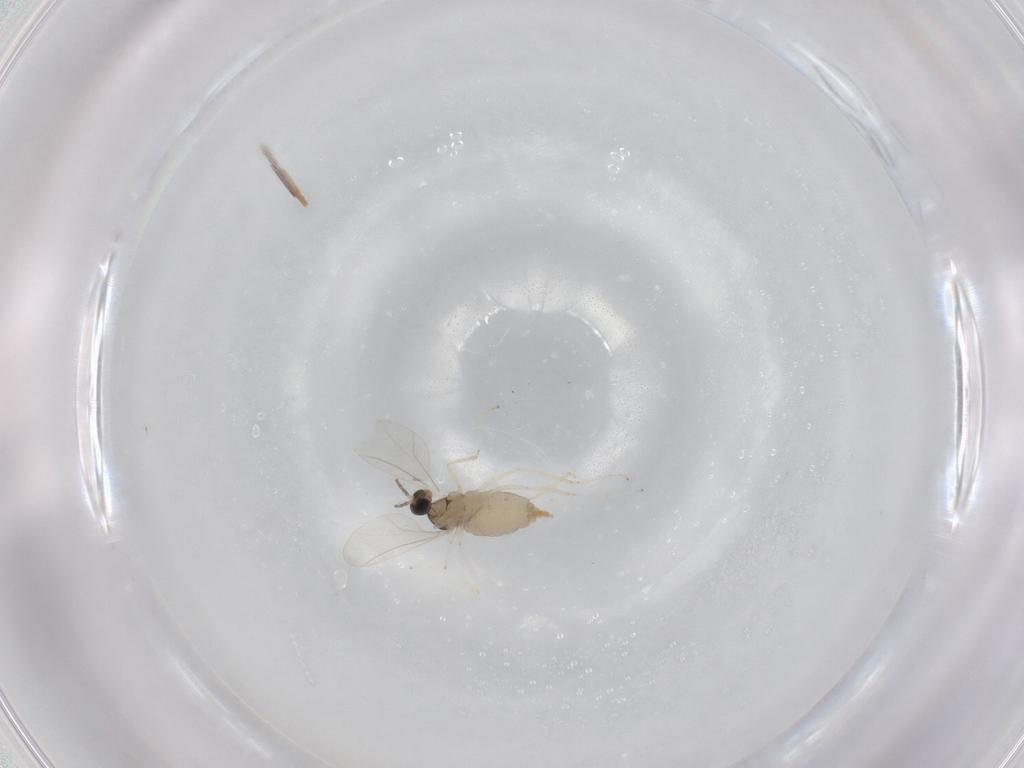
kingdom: Animalia
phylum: Arthropoda
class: Insecta
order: Diptera
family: Cecidomyiidae
